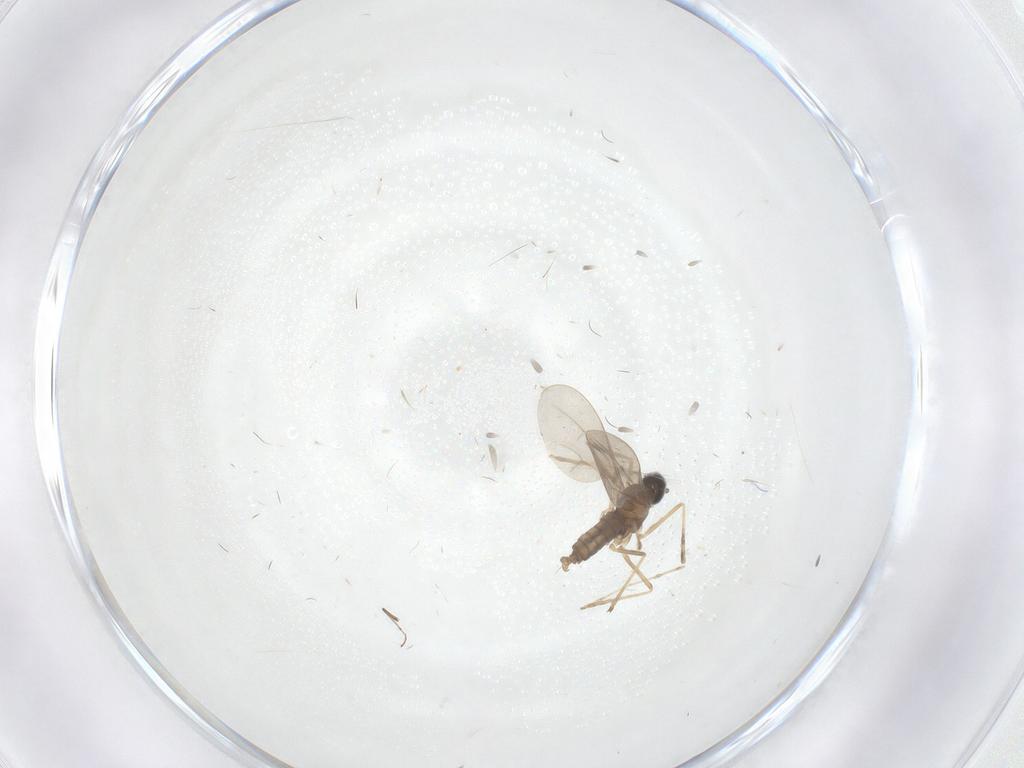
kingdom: Animalia
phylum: Arthropoda
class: Insecta
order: Diptera
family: Cecidomyiidae
